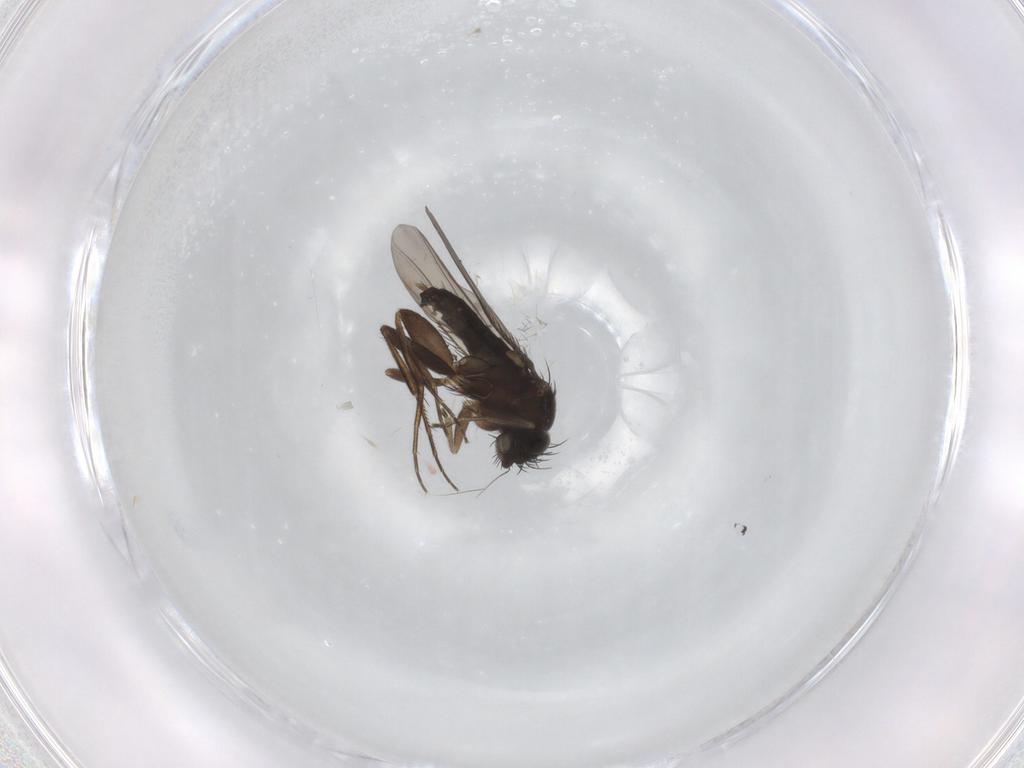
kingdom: Animalia
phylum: Arthropoda
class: Insecta
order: Diptera
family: Phoridae
